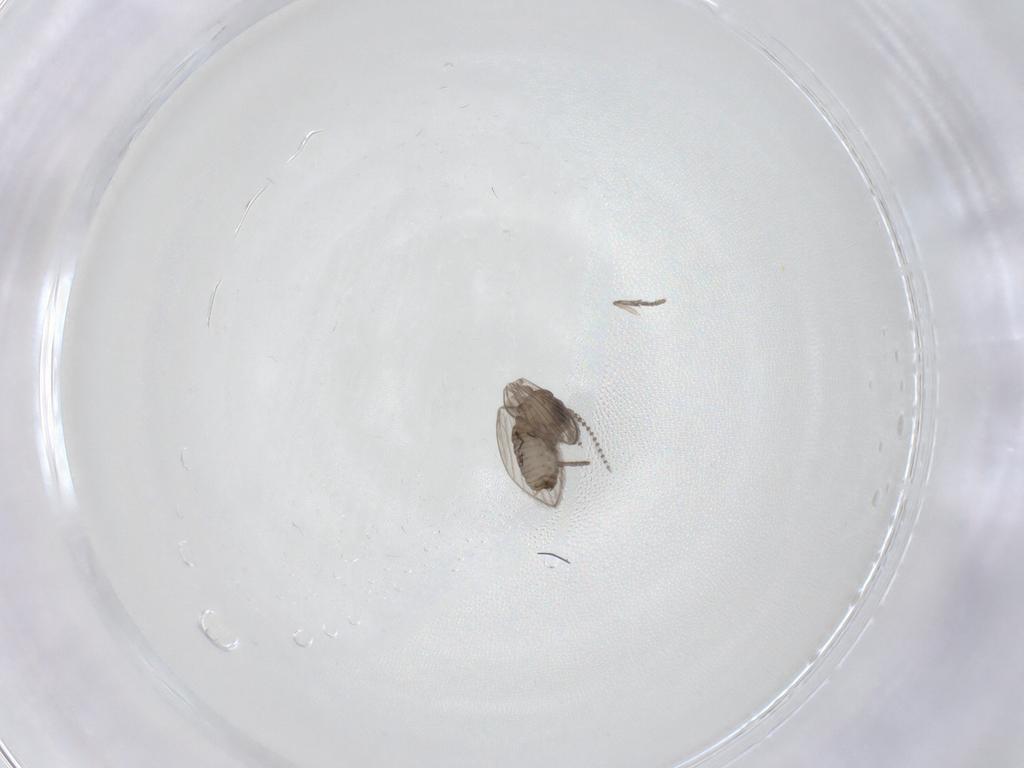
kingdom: Animalia
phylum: Arthropoda
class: Insecta
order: Diptera
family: Psychodidae
